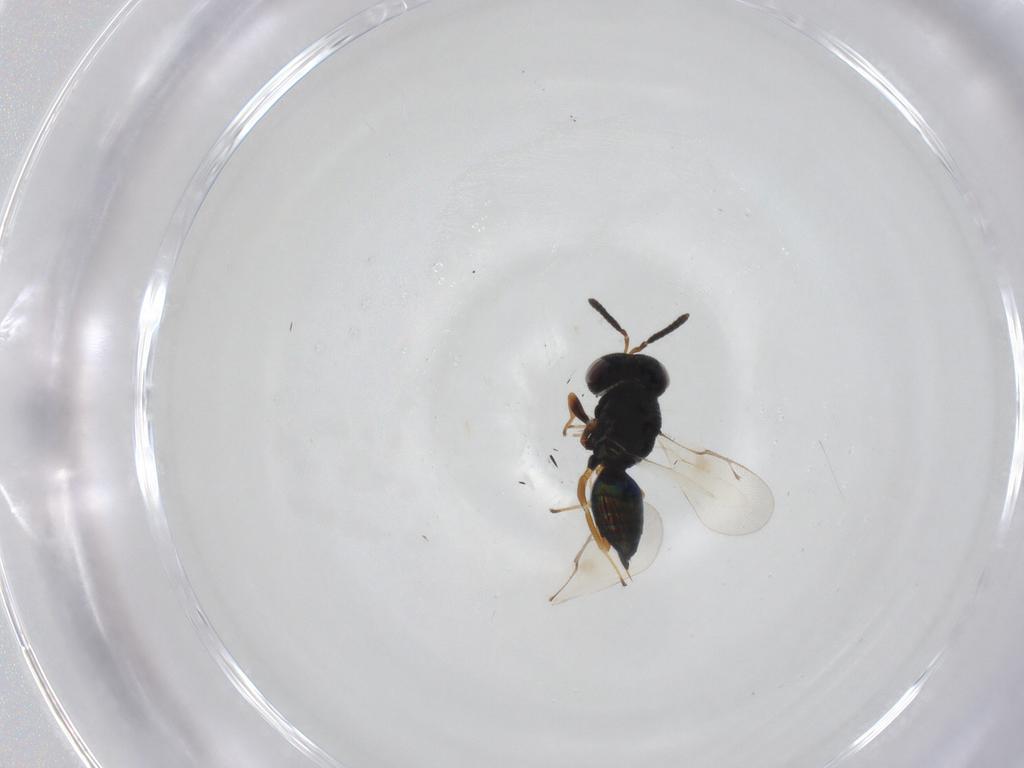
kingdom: Animalia
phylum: Arthropoda
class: Insecta
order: Hymenoptera
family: Pteromalidae
